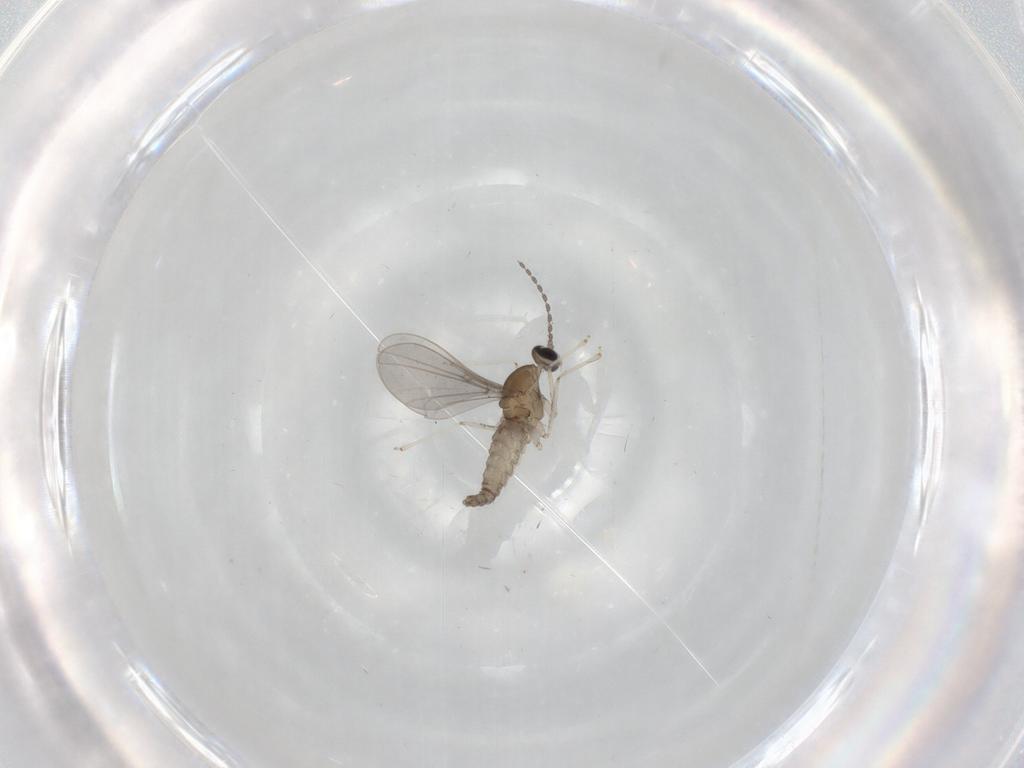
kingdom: Animalia
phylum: Arthropoda
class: Insecta
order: Diptera
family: Cecidomyiidae
